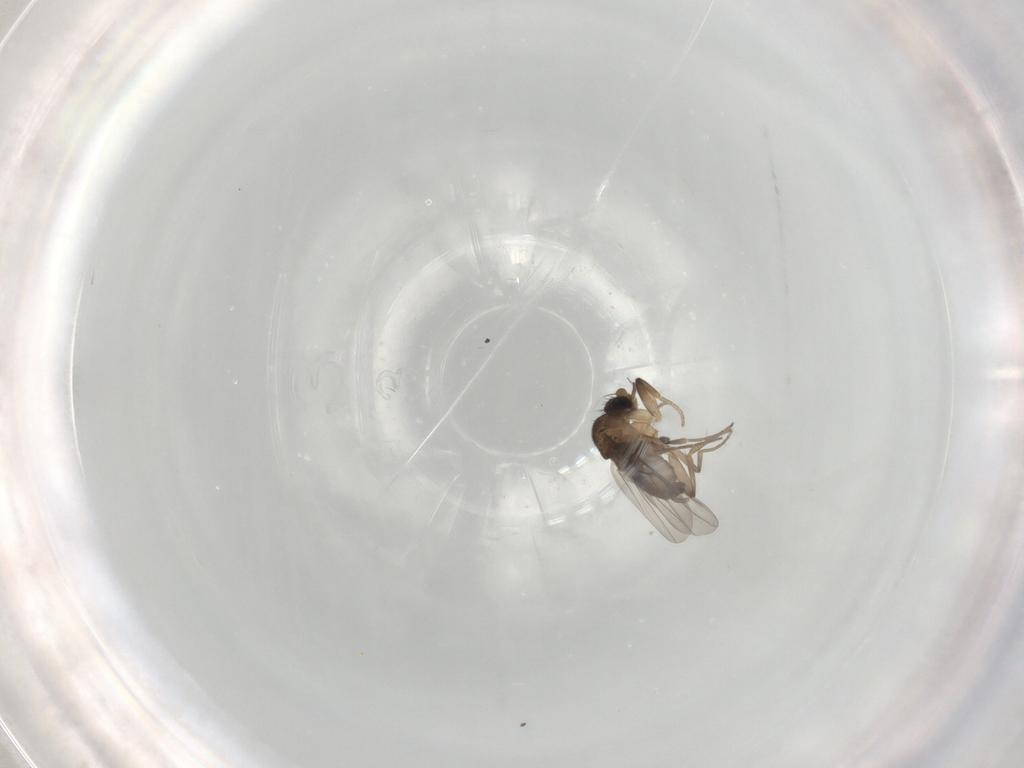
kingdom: Animalia
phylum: Arthropoda
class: Insecta
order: Diptera
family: Phoridae
